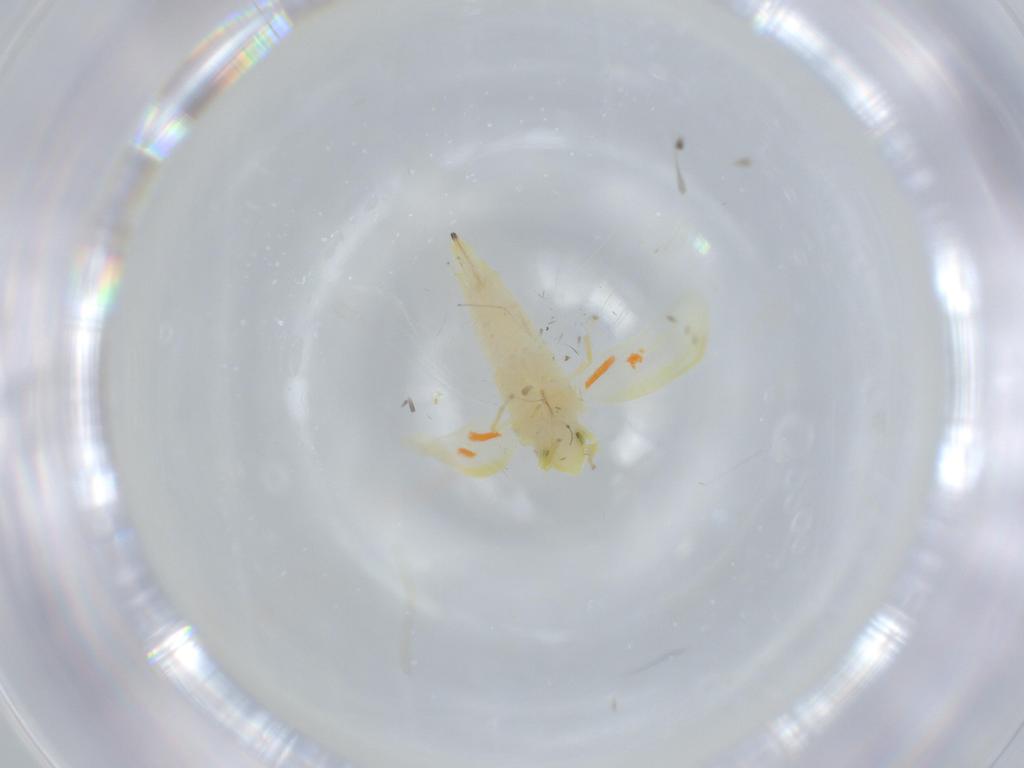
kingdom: Animalia
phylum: Arthropoda
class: Insecta
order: Hemiptera
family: Cicadellidae
